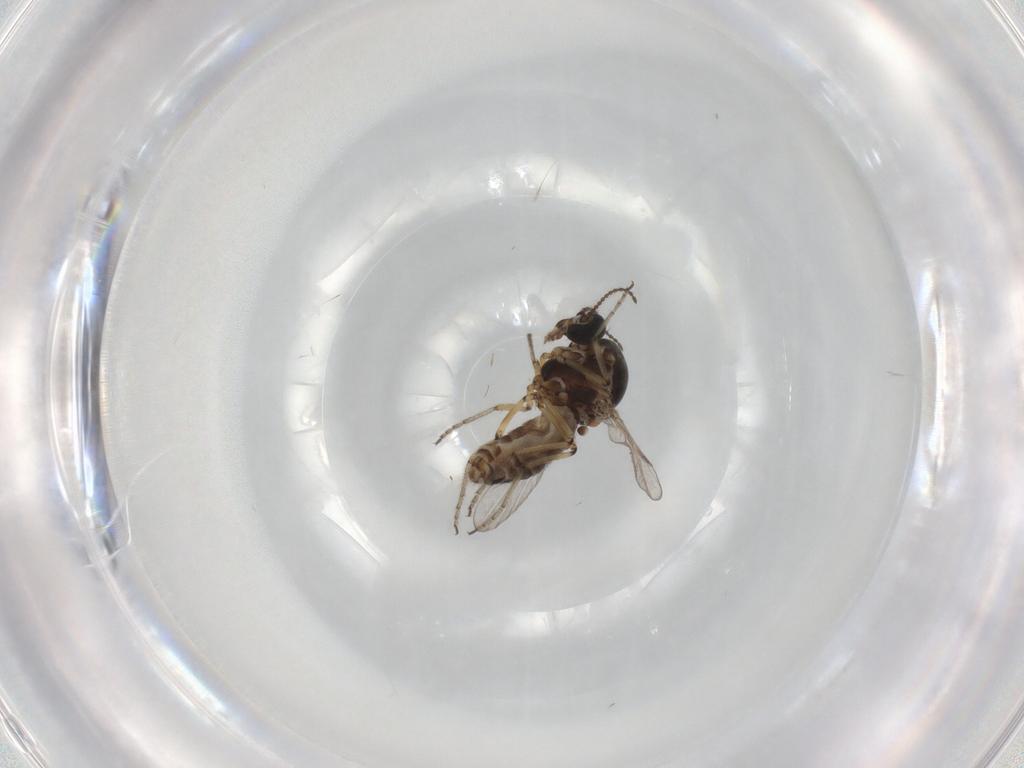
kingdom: Animalia
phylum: Arthropoda
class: Insecta
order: Diptera
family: Ceratopogonidae
